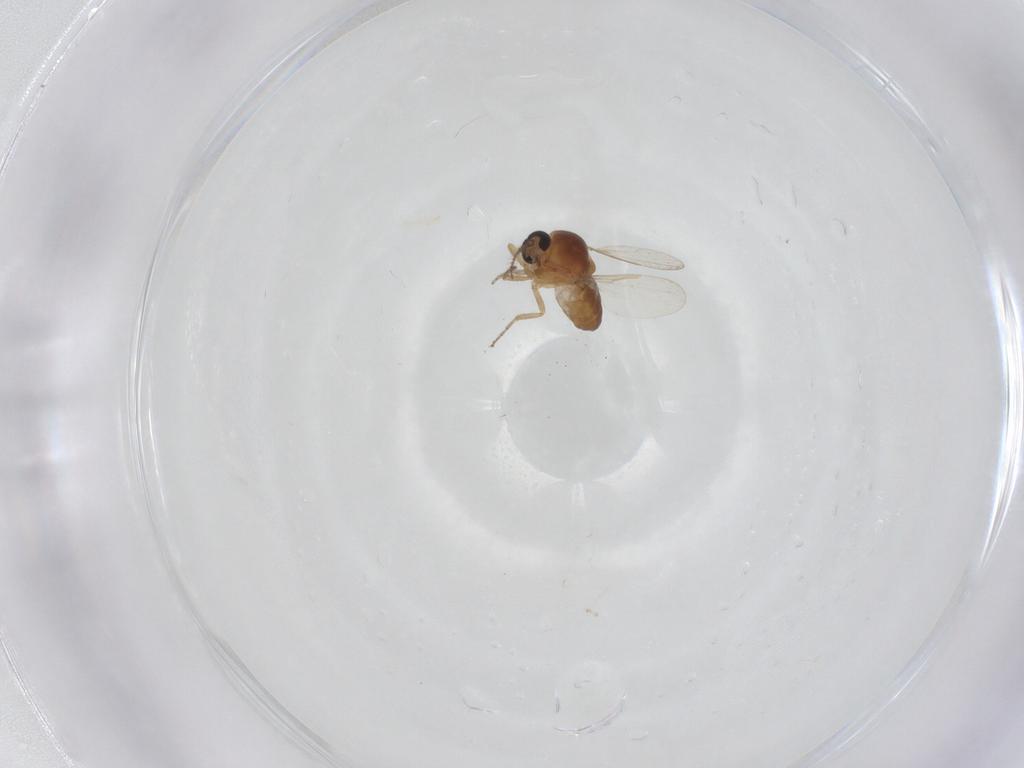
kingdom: Animalia
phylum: Arthropoda
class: Insecta
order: Diptera
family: Ceratopogonidae
